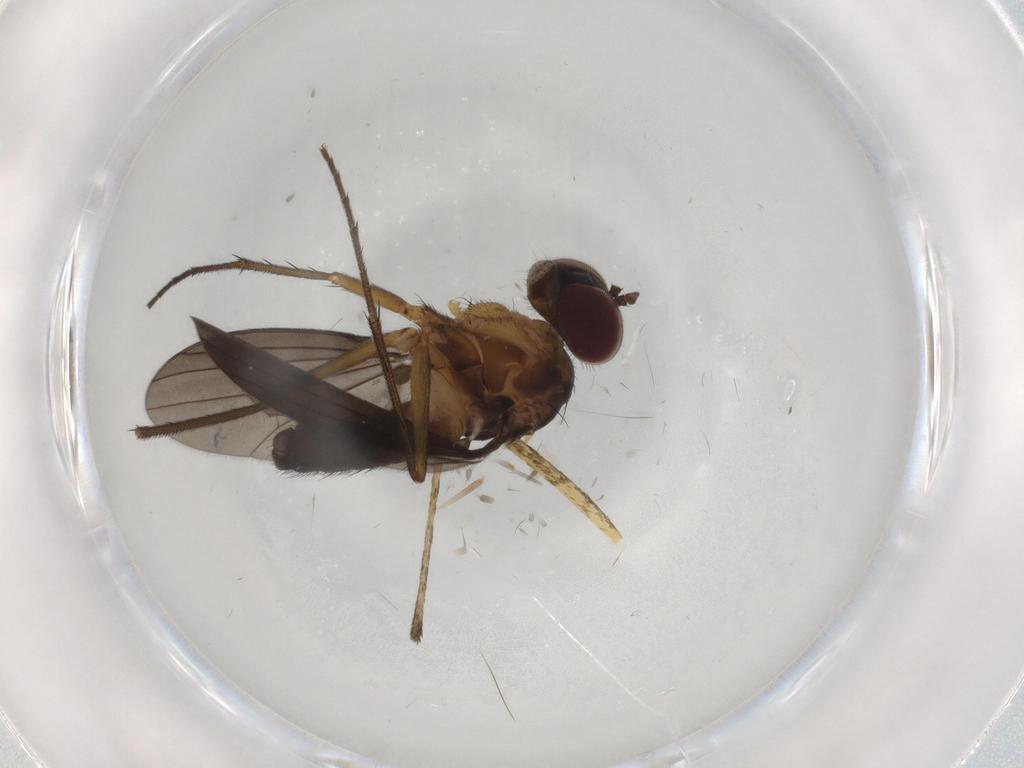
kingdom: Animalia
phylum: Arthropoda
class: Insecta
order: Diptera
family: Dolichopodidae
